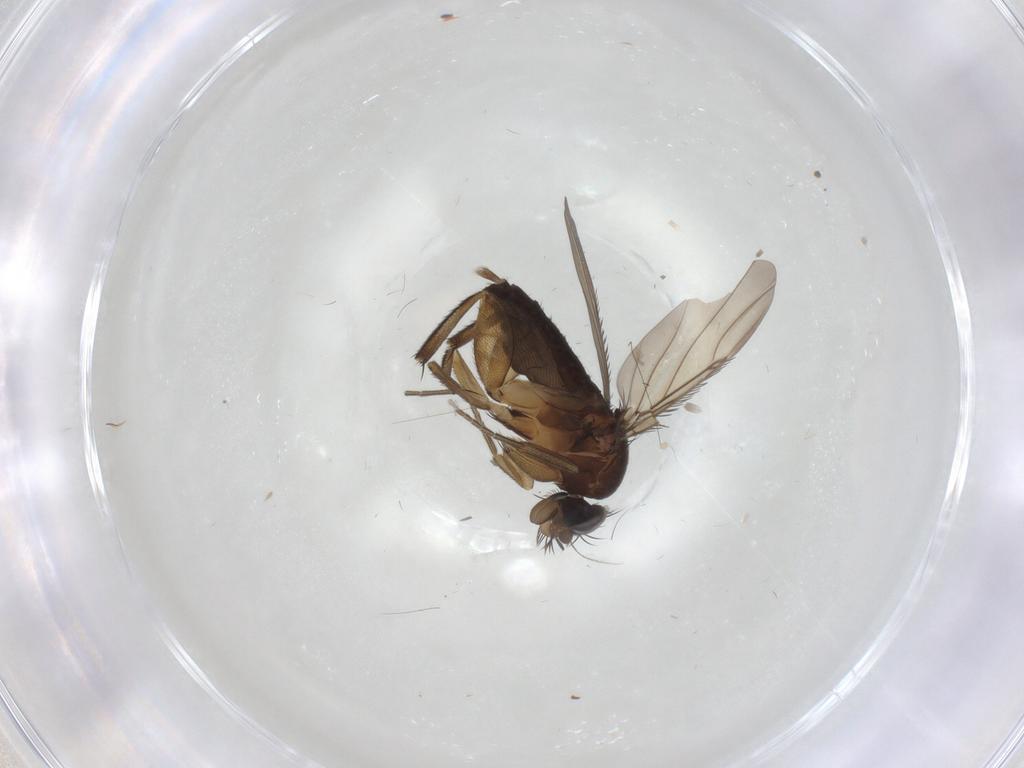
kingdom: Animalia
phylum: Arthropoda
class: Insecta
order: Diptera
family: Phoridae
